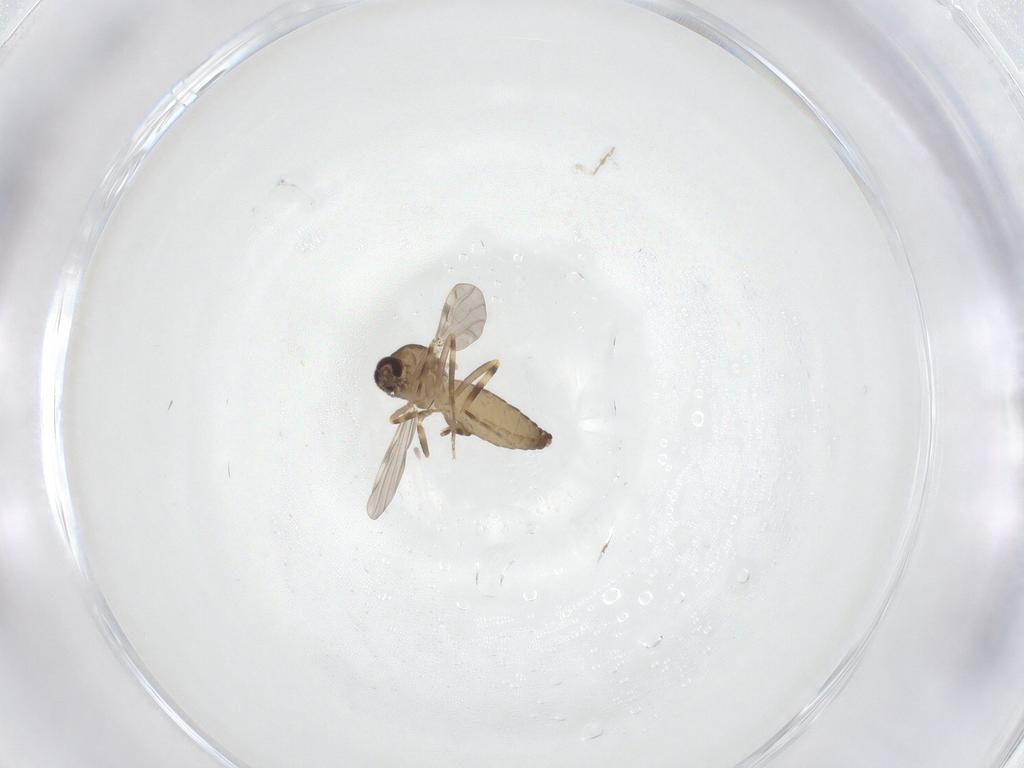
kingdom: Animalia
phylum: Arthropoda
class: Insecta
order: Diptera
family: Ceratopogonidae
